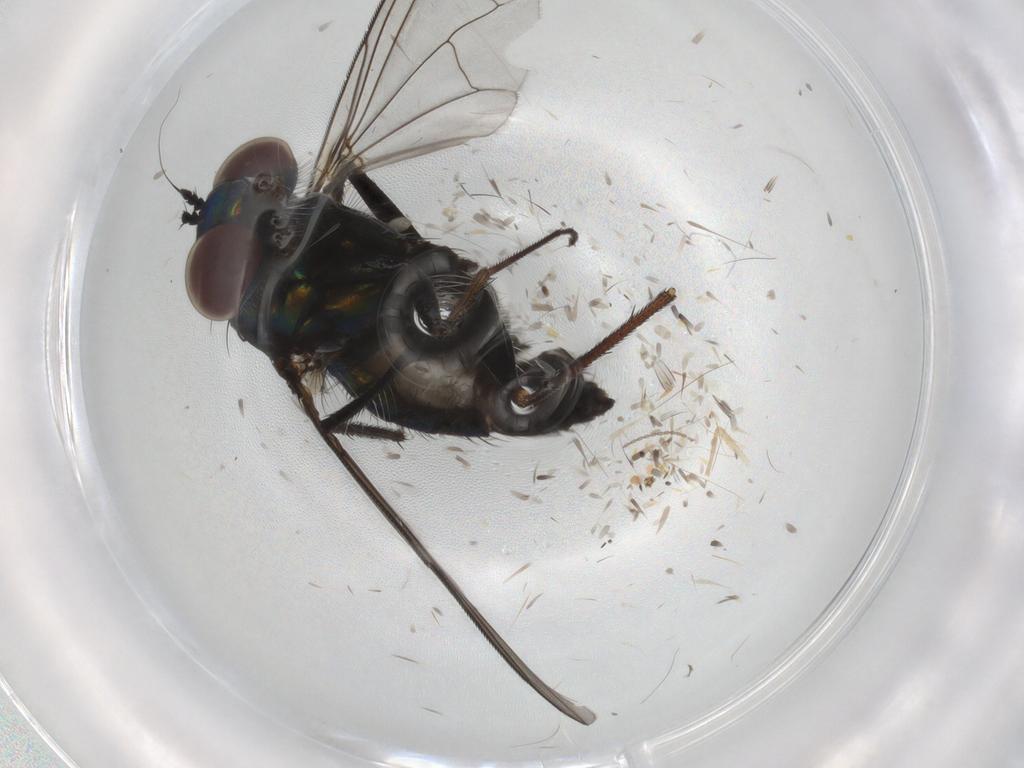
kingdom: Animalia
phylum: Arthropoda
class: Insecta
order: Diptera
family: Dolichopodidae
